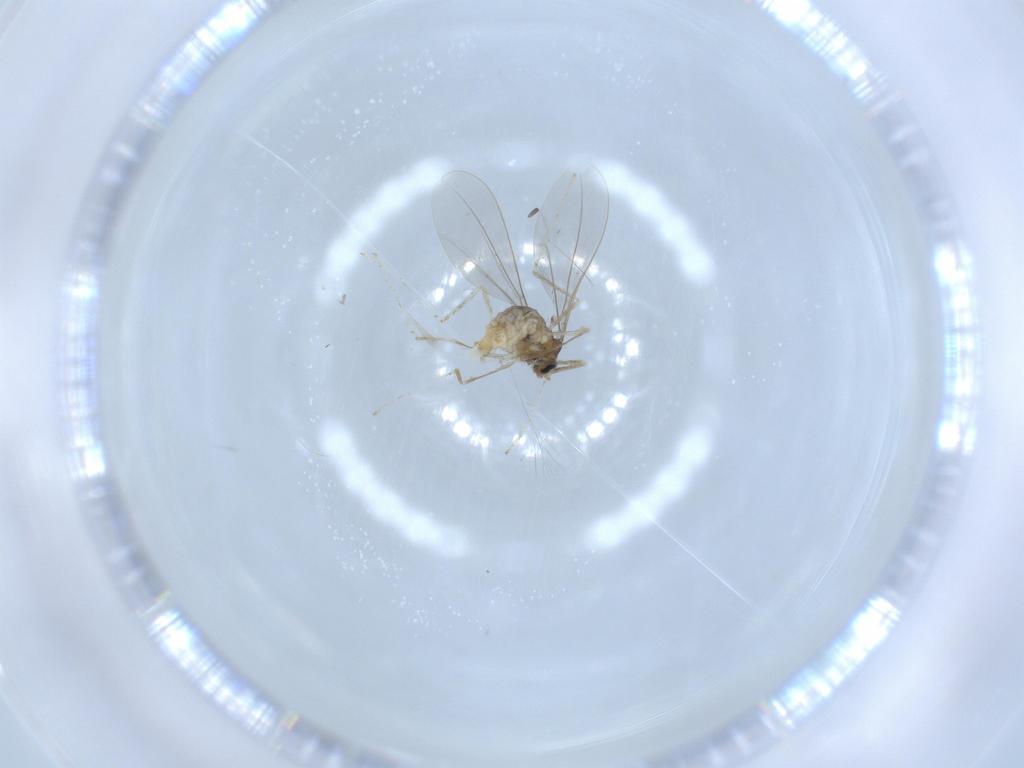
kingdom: Animalia
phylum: Arthropoda
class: Insecta
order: Diptera
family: Cecidomyiidae
